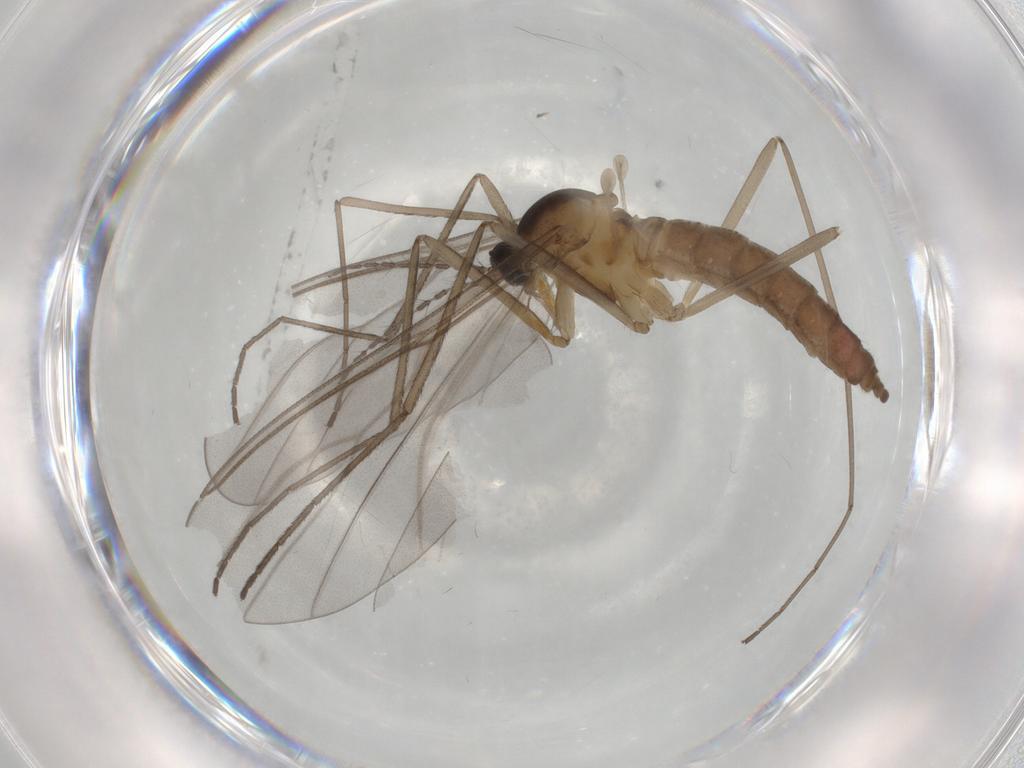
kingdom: Animalia
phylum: Arthropoda
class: Insecta
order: Diptera
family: Cecidomyiidae
